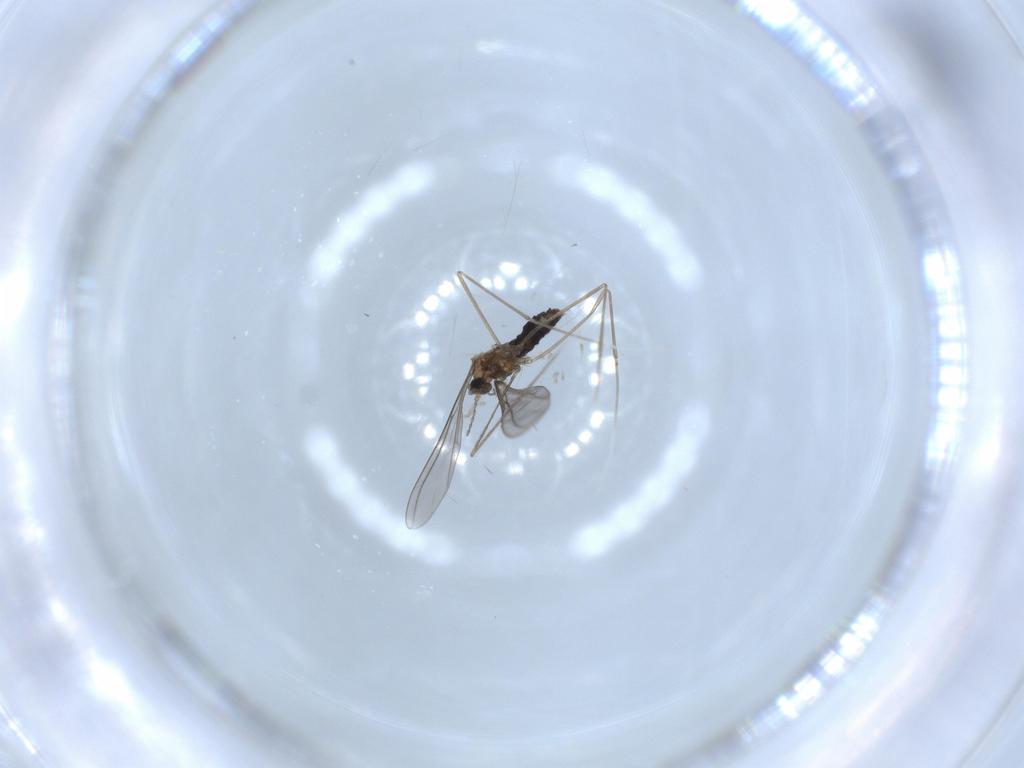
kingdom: Animalia
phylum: Arthropoda
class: Insecta
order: Diptera
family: Cecidomyiidae
